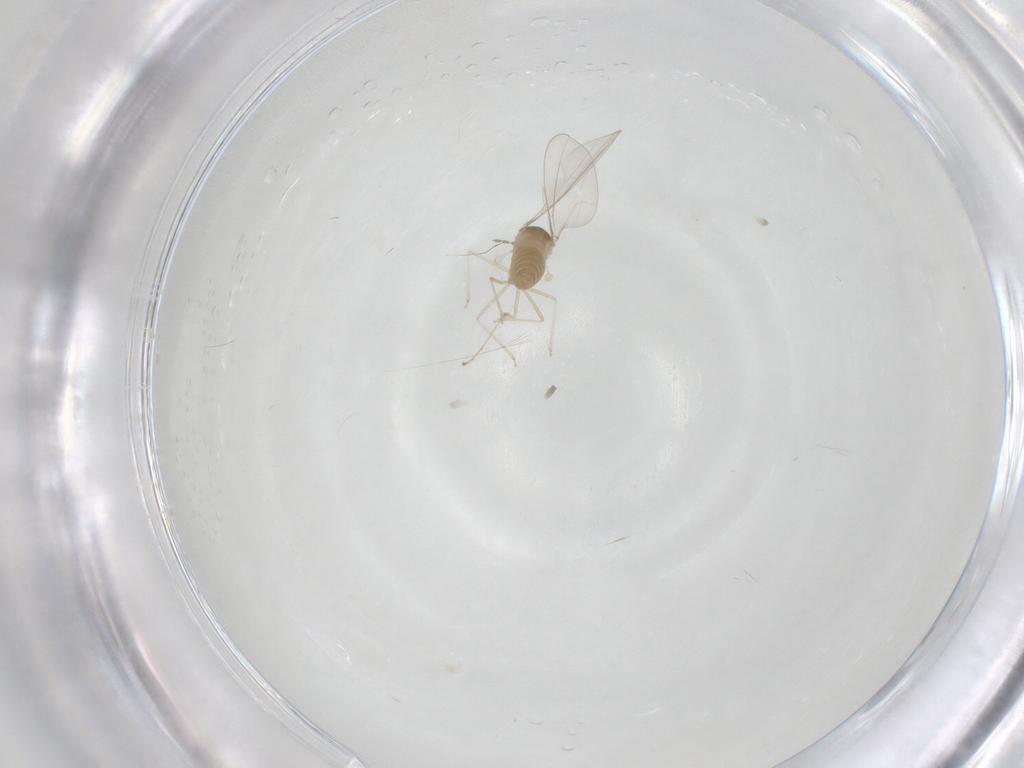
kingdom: Animalia
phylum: Arthropoda
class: Insecta
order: Diptera
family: Cecidomyiidae
